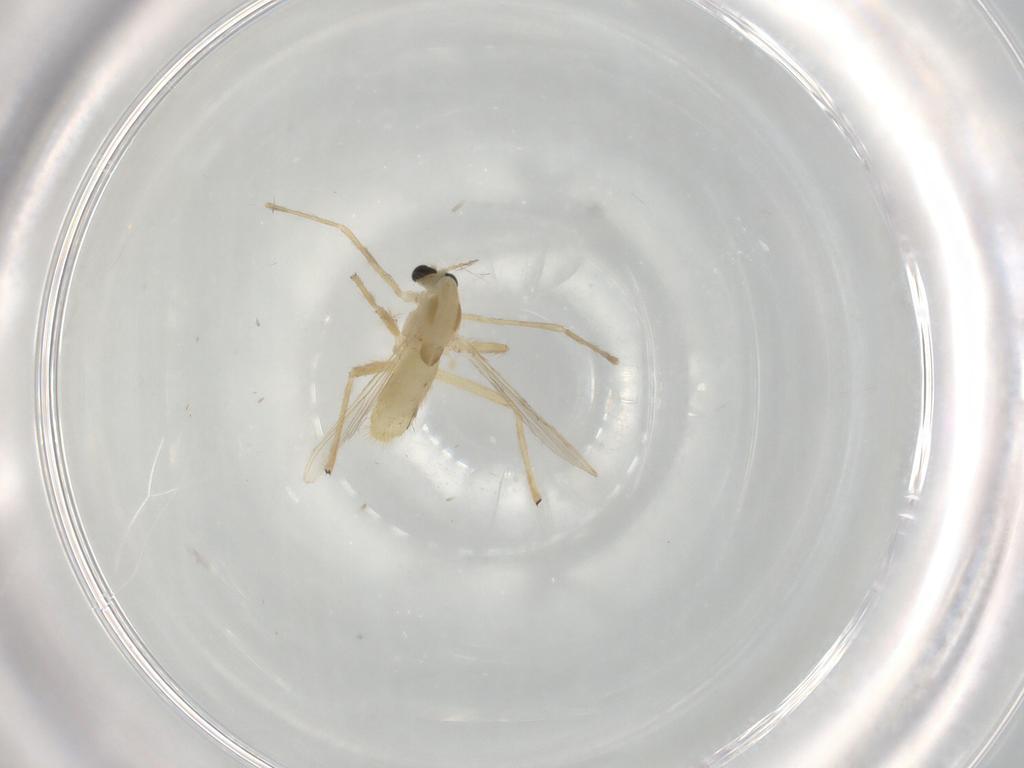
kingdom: Animalia
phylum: Arthropoda
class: Insecta
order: Diptera
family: Chironomidae
